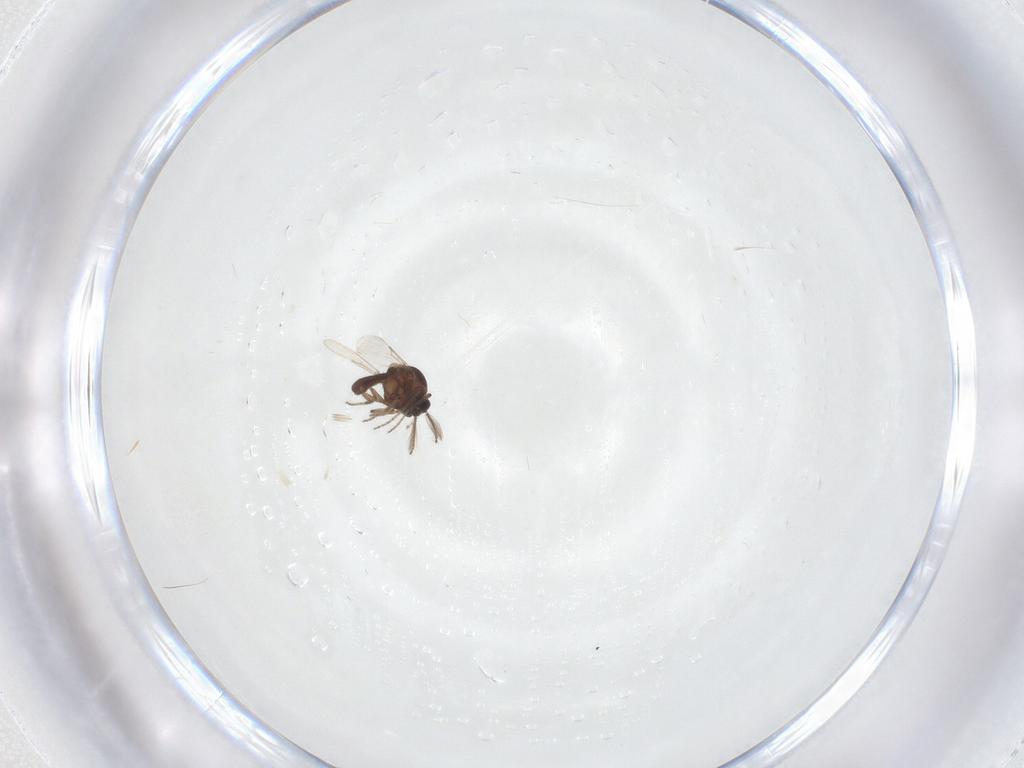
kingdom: Animalia
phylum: Arthropoda
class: Insecta
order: Diptera
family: Ceratopogonidae
